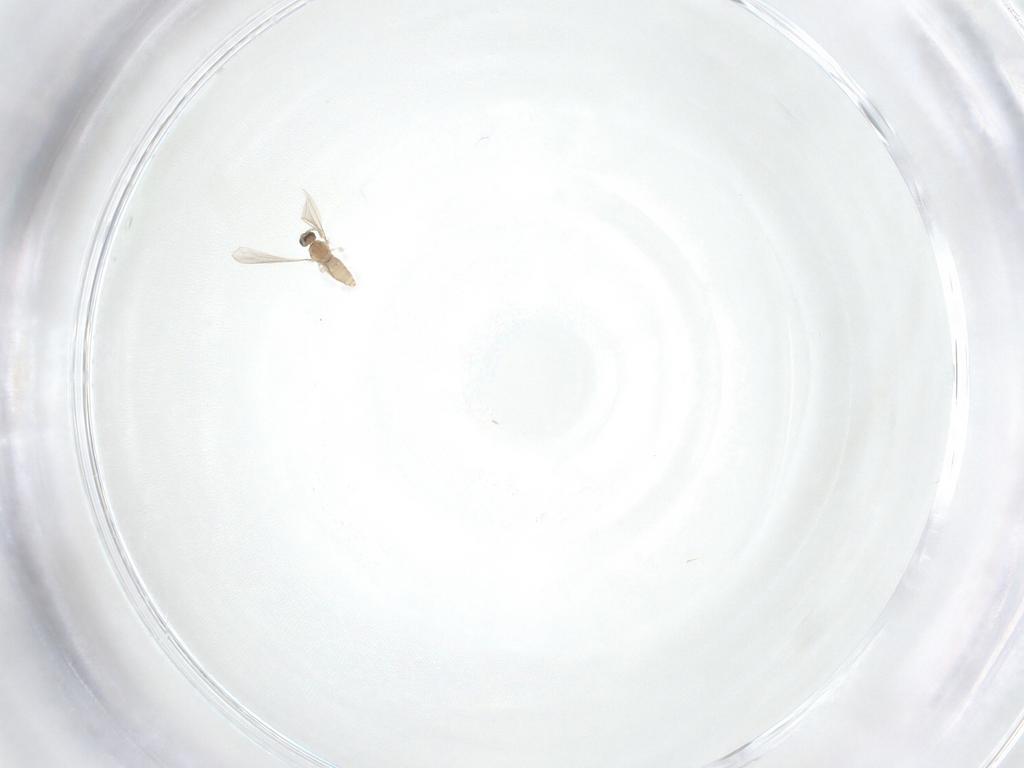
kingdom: Animalia
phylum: Arthropoda
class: Insecta
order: Diptera
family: Cecidomyiidae
